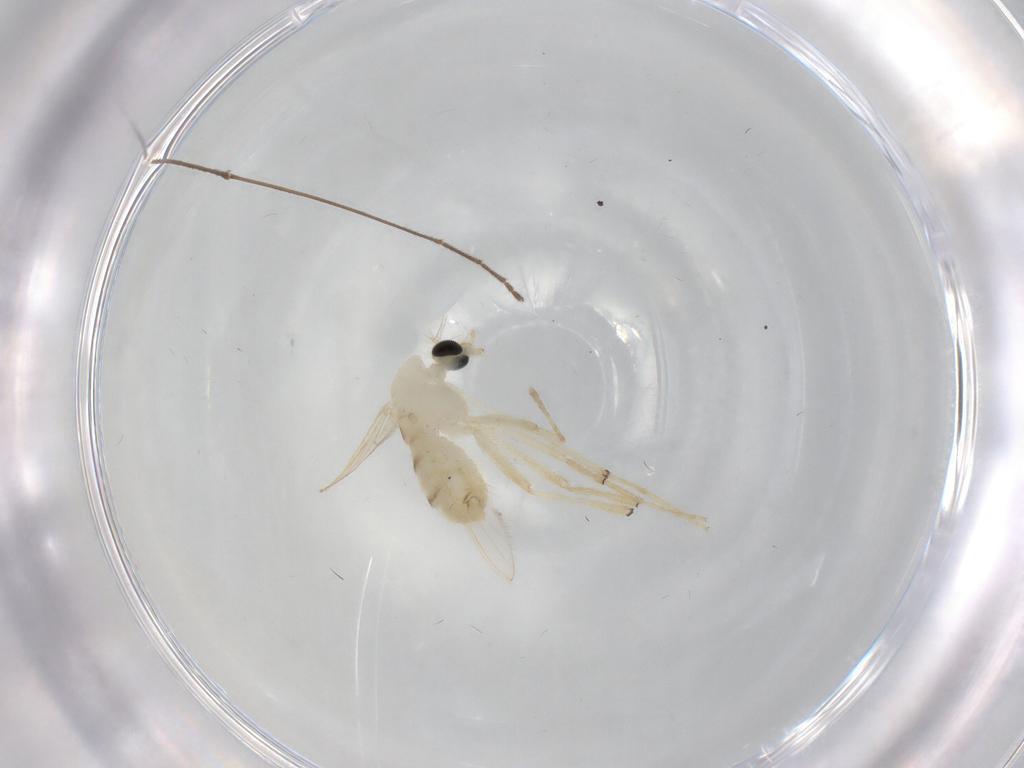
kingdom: Animalia
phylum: Arthropoda
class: Insecta
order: Diptera
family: Chironomidae
